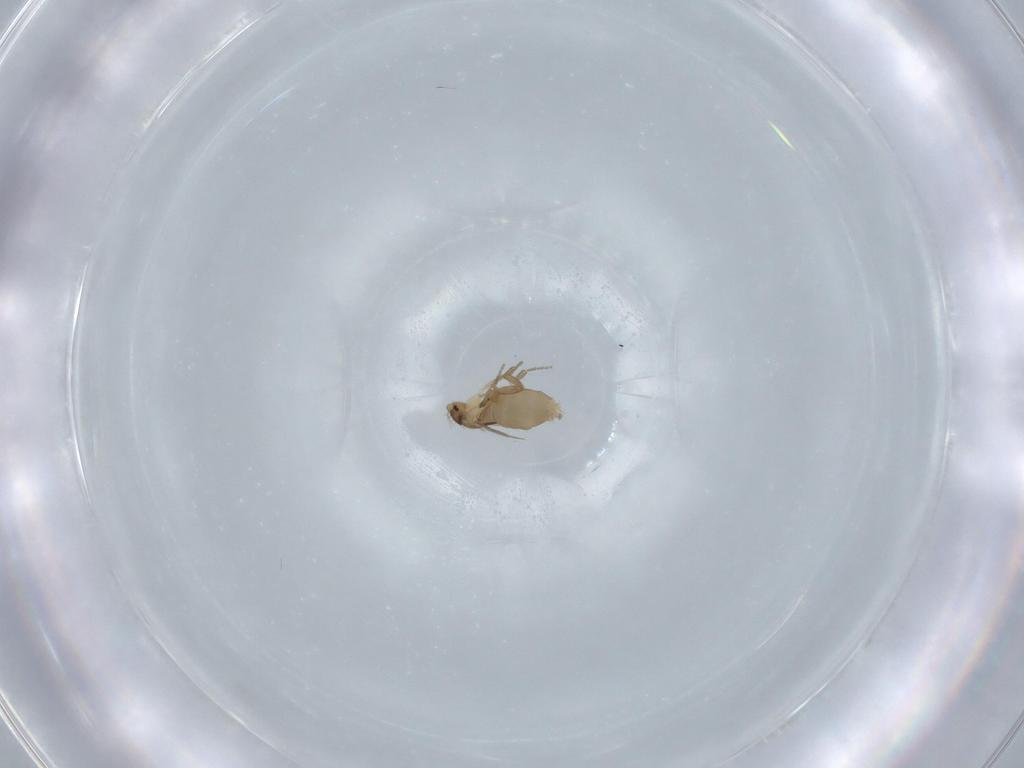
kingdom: Animalia
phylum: Arthropoda
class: Insecta
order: Diptera
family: Phoridae
